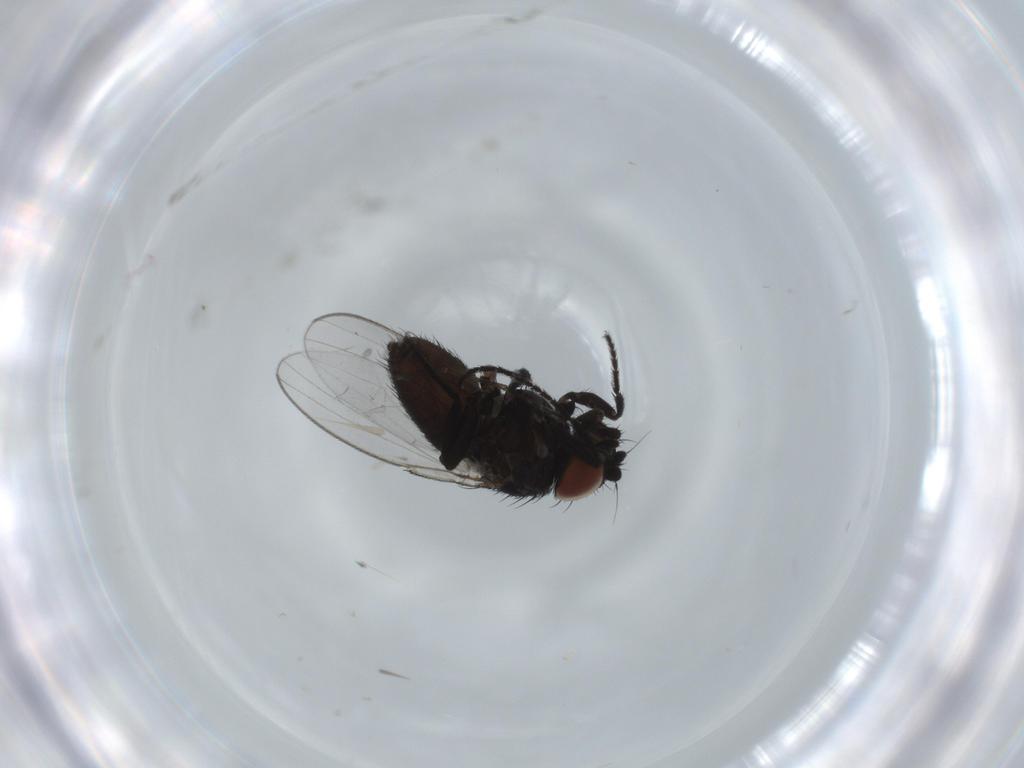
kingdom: Animalia
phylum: Arthropoda
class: Insecta
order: Diptera
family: Milichiidae
